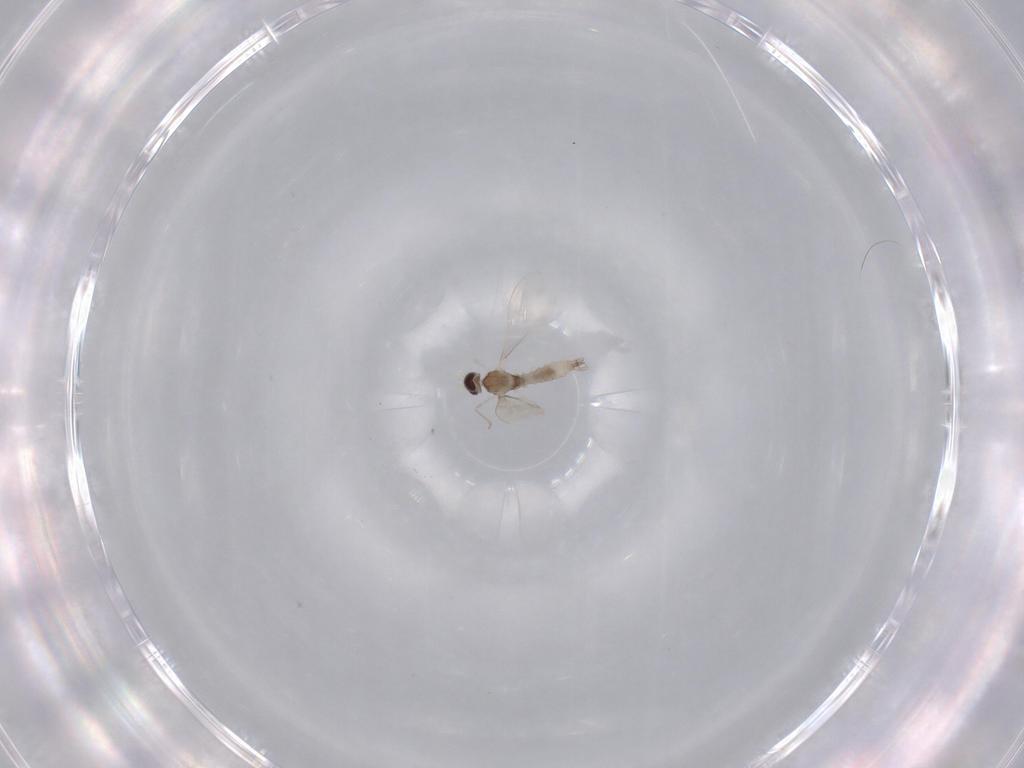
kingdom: Animalia
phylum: Arthropoda
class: Insecta
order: Diptera
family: Cecidomyiidae
